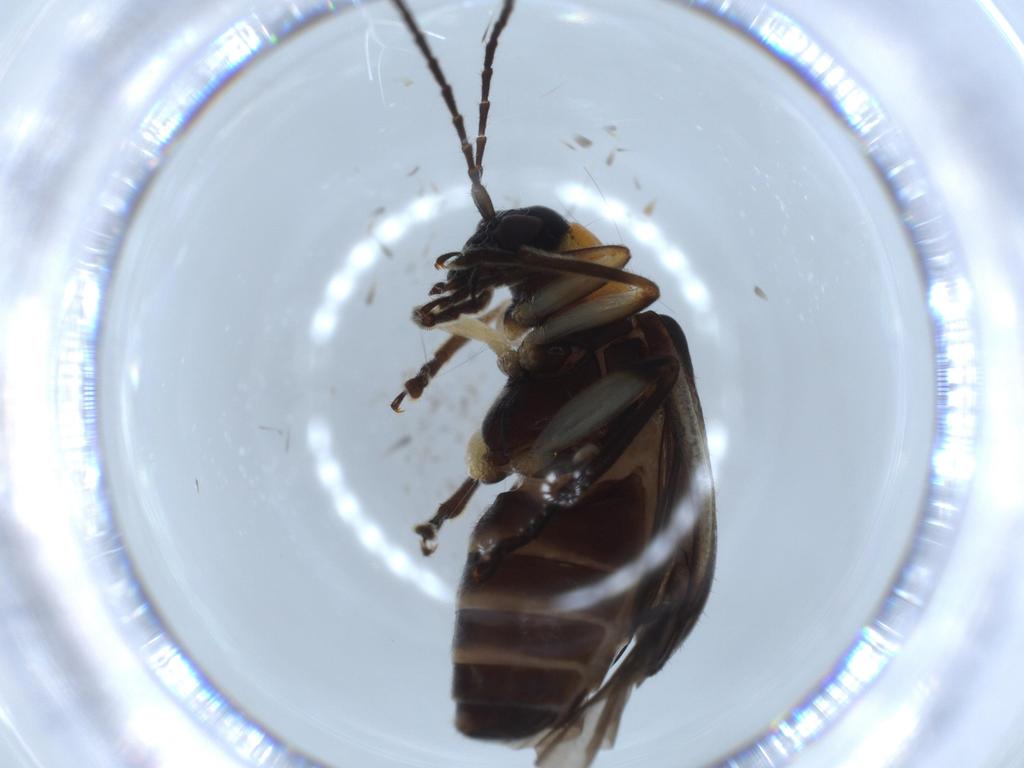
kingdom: Animalia
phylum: Arthropoda
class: Insecta
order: Coleoptera
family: Lampyridae
